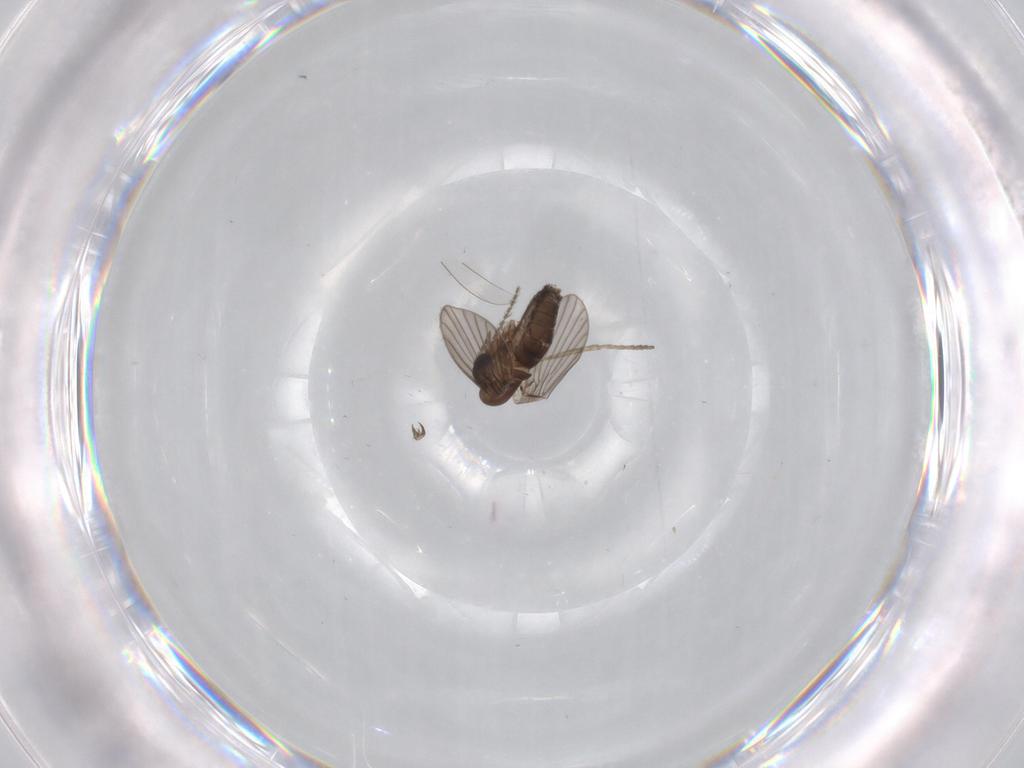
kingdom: Animalia
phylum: Arthropoda
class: Insecta
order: Diptera
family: Cecidomyiidae
